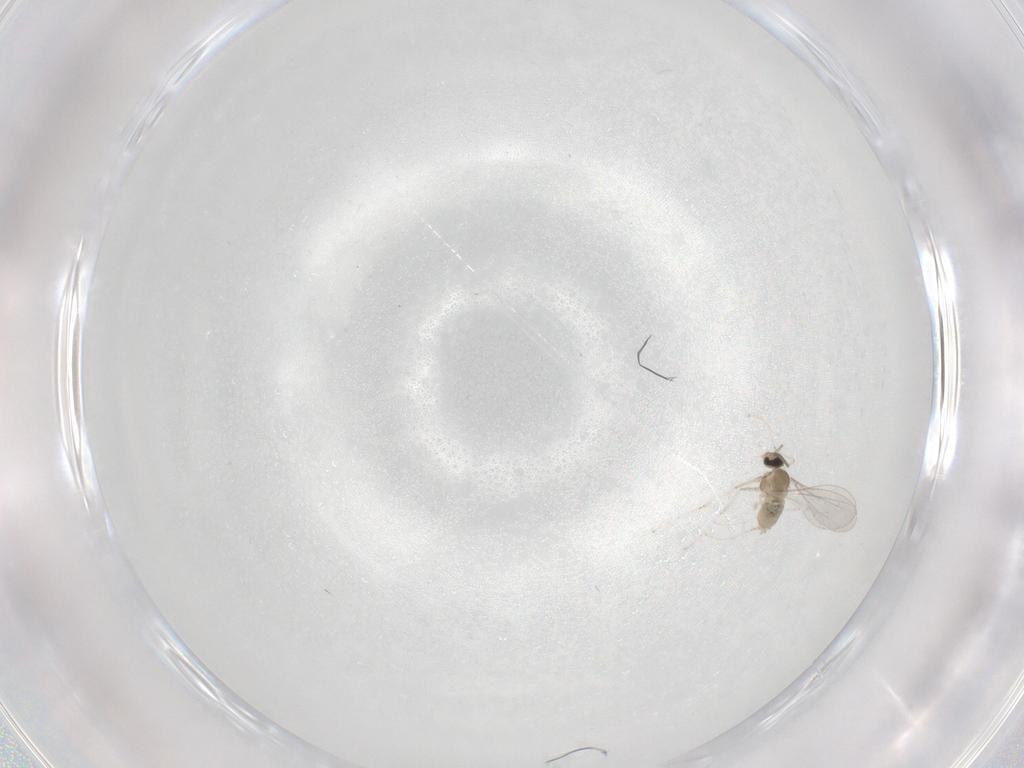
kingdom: Animalia
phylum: Arthropoda
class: Insecta
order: Diptera
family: Cecidomyiidae
